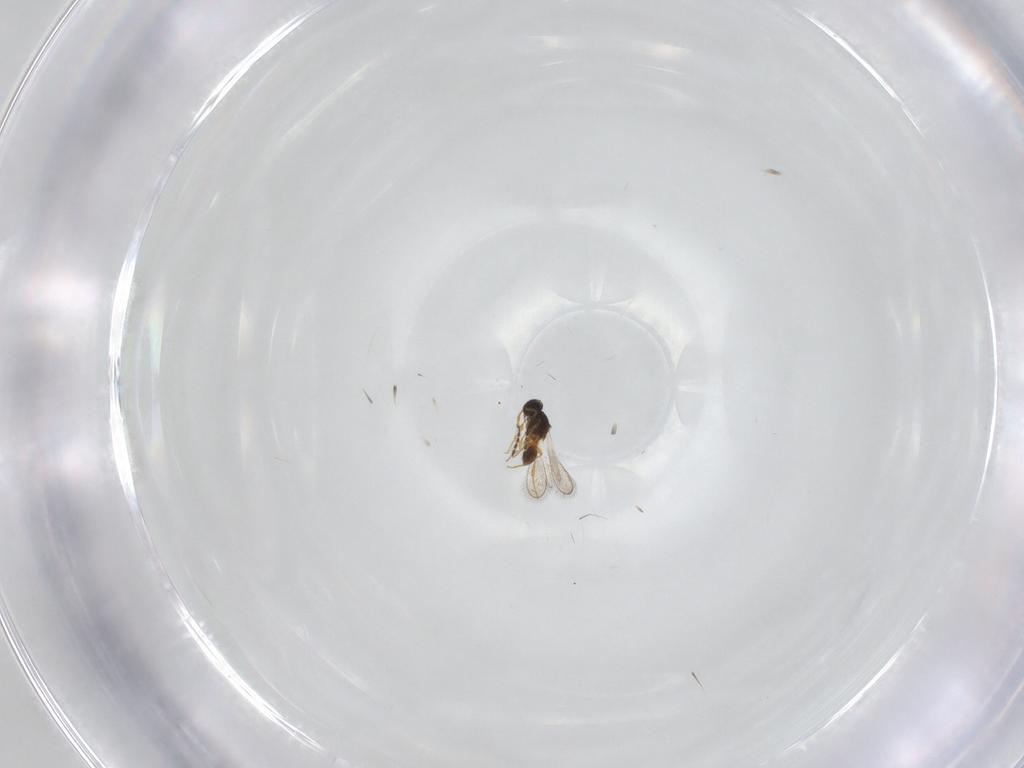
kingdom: Animalia
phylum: Arthropoda
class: Insecta
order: Hymenoptera
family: Platygastridae
